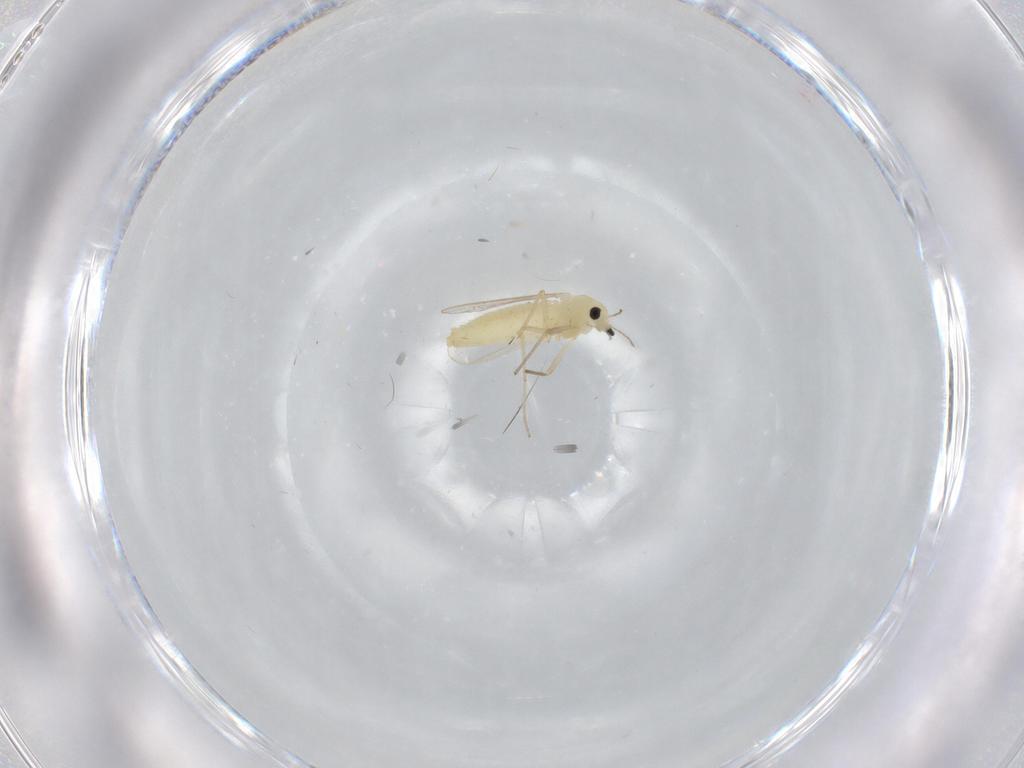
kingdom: Animalia
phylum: Arthropoda
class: Insecta
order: Diptera
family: Chironomidae
